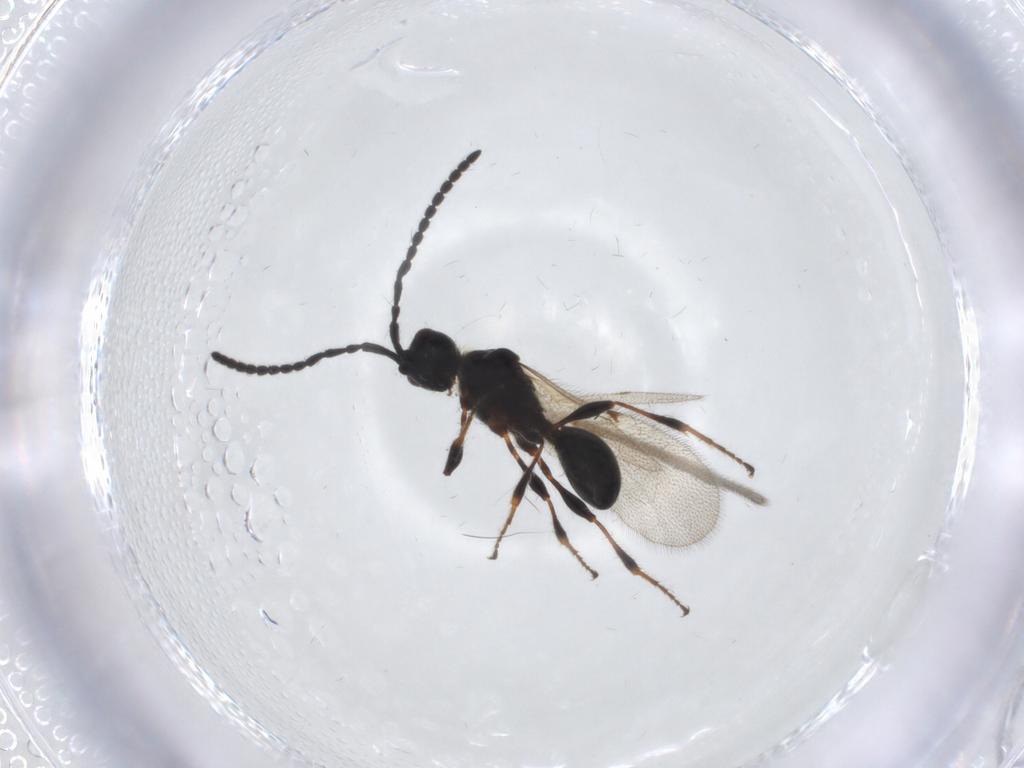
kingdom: Animalia
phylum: Arthropoda
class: Insecta
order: Hymenoptera
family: Diapriidae
